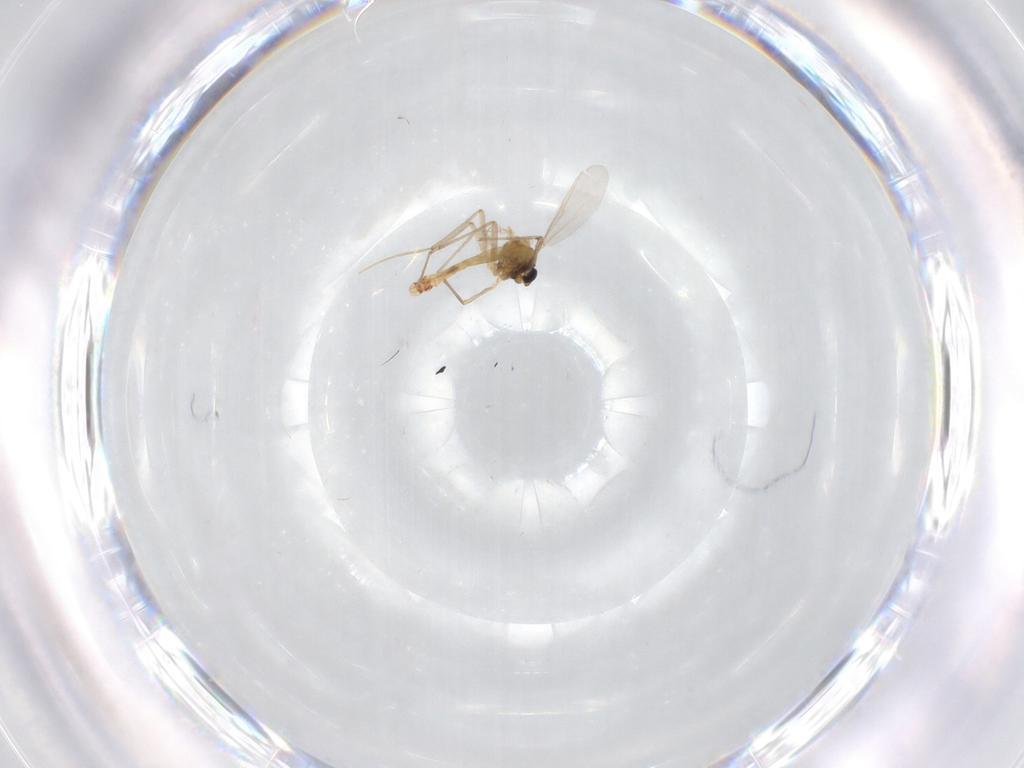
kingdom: Animalia
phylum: Arthropoda
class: Insecta
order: Diptera
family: Chironomidae
